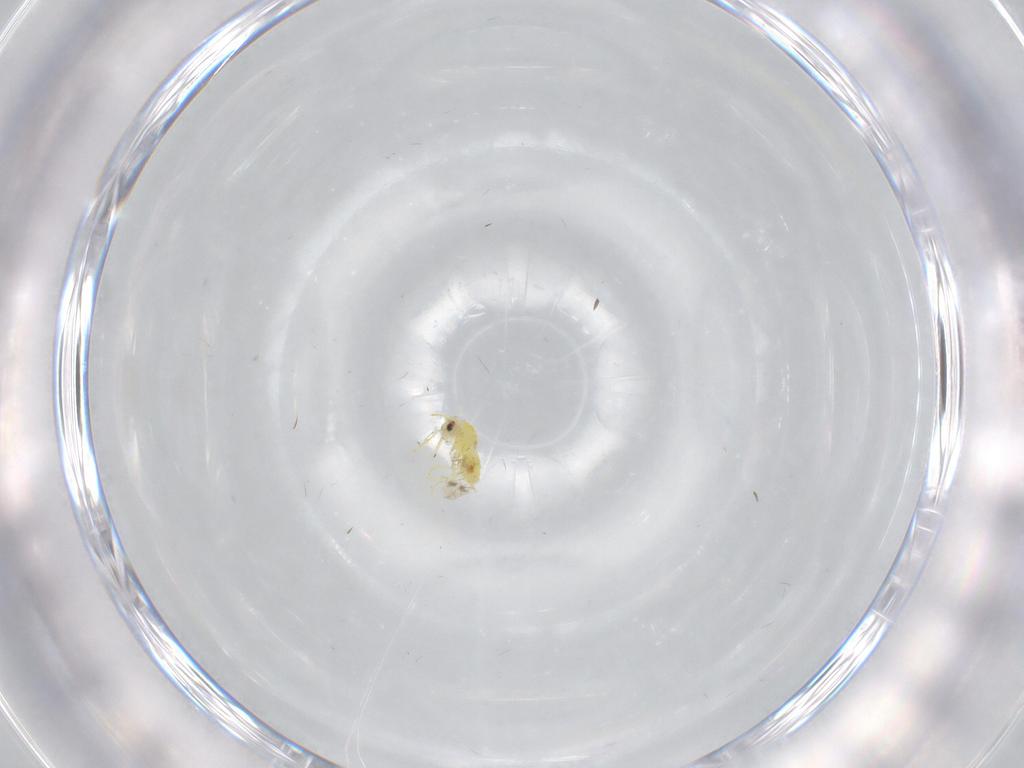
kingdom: Animalia
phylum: Arthropoda
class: Insecta
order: Hemiptera
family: Aleyrodidae
